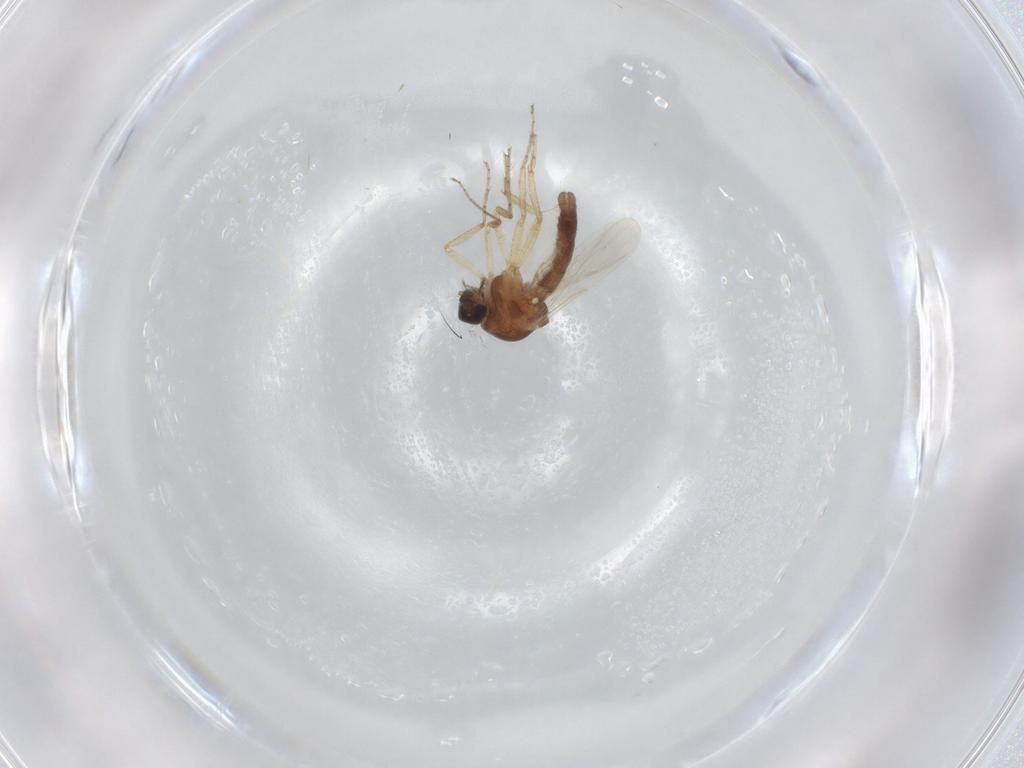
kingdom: Animalia
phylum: Arthropoda
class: Insecta
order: Diptera
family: Ceratopogonidae
